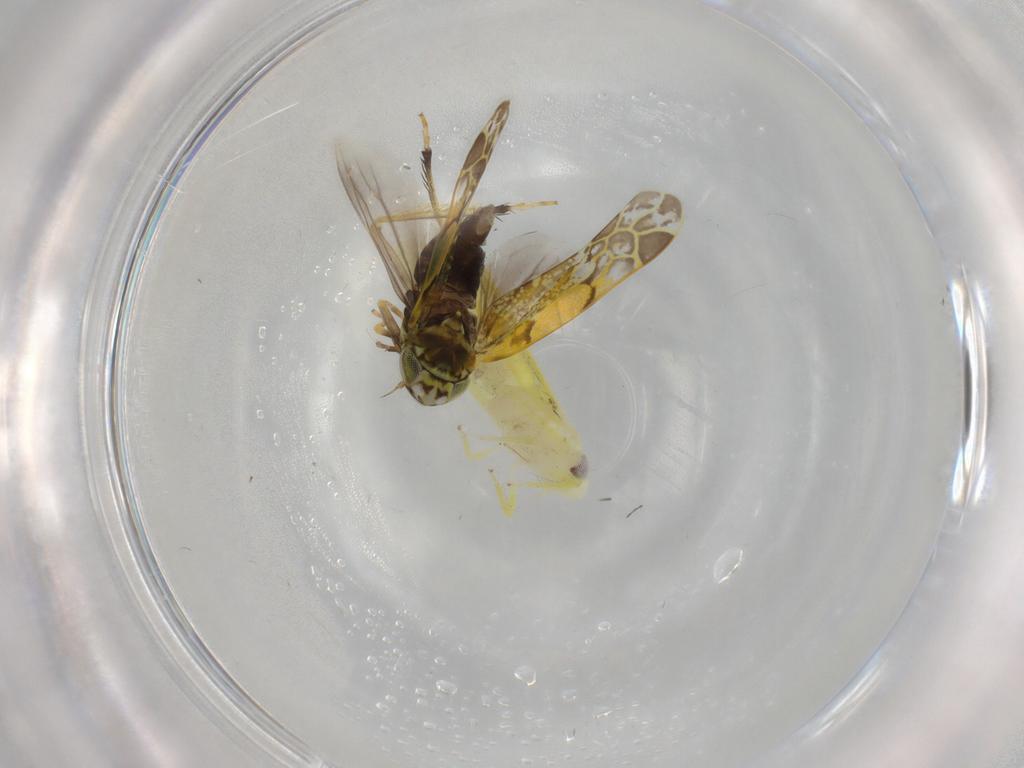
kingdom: Animalia
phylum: Arthropoda
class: Insecta
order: Hemiptera
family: Cicadellidae
